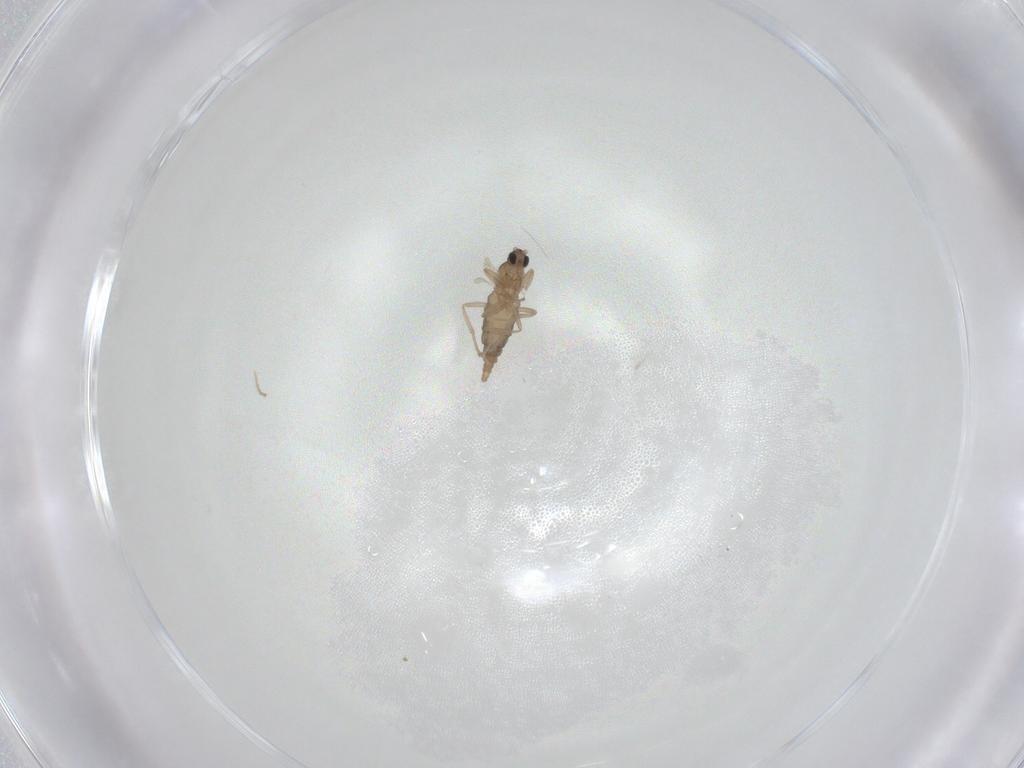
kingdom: Animalia
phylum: Arthropoda
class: Insecta
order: Diptera
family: Cecidomyiidae
